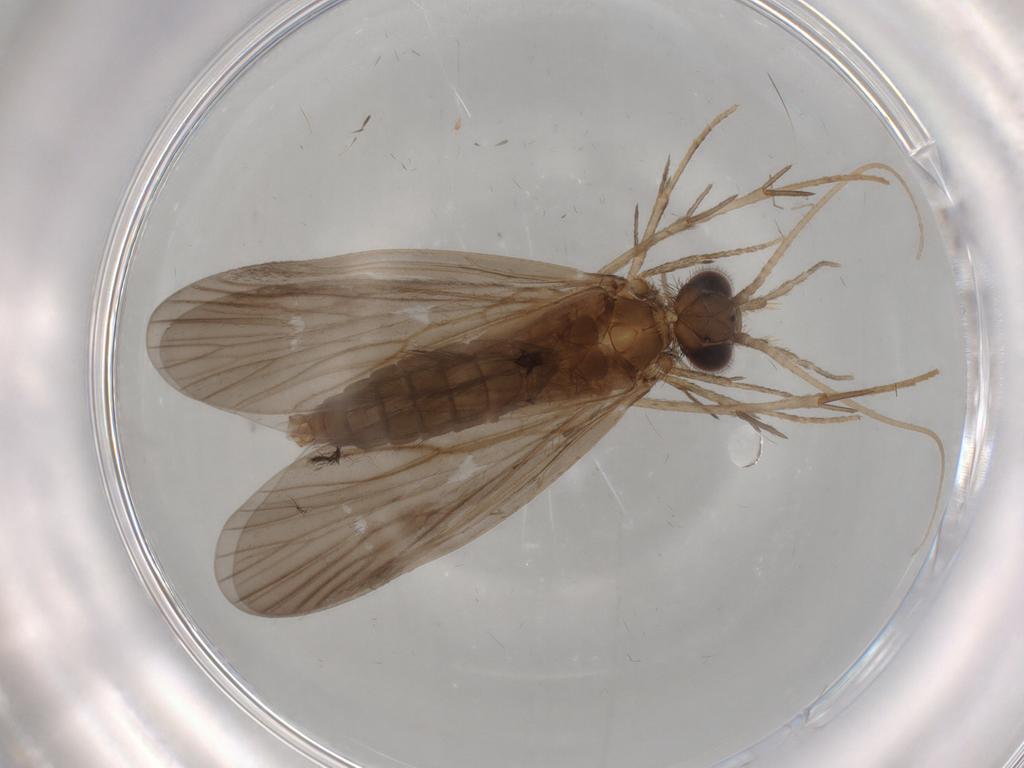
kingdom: Animalia
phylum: Arthropoda
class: Insecta
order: Trichoptera
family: Philopotamidae
